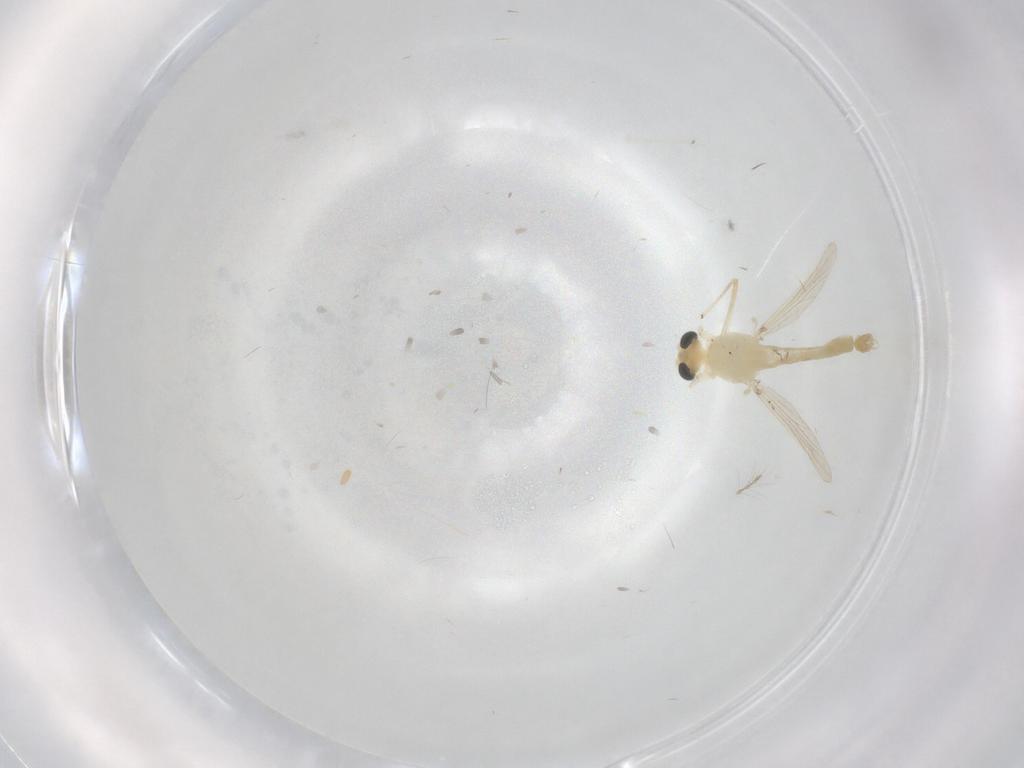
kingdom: Animalia
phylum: Arthropoda
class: Insecta
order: Diptera
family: Chironomidae
